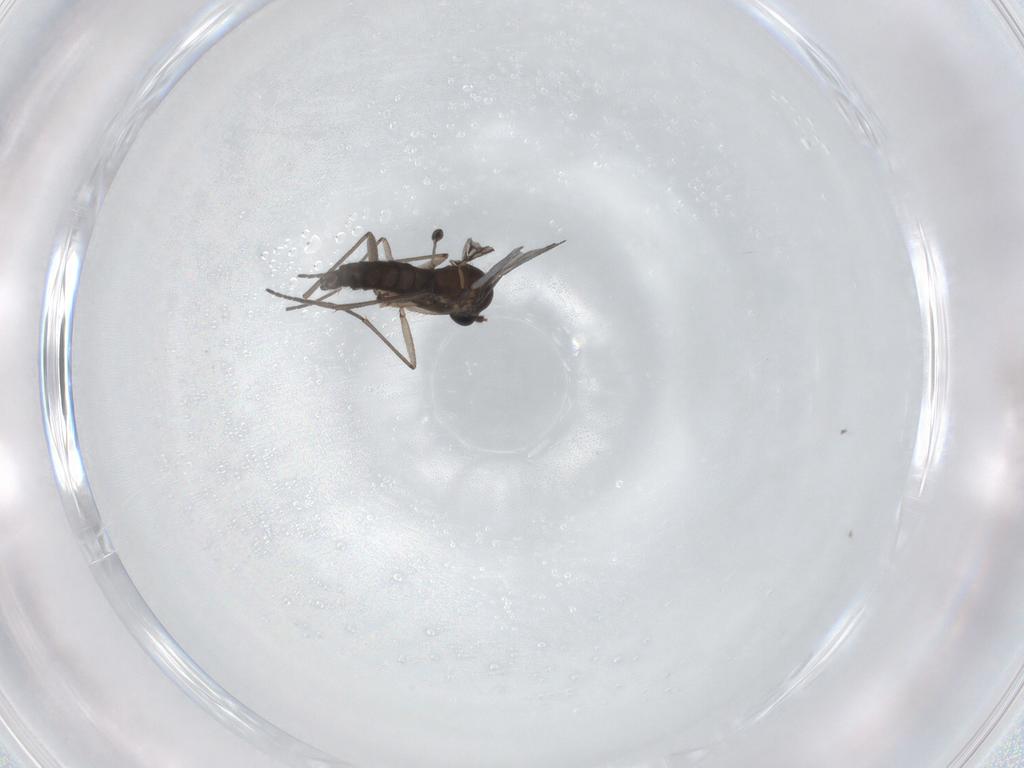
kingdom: Animalia
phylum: Arthropoda
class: Insecta
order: Diptera
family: Sciaridae
